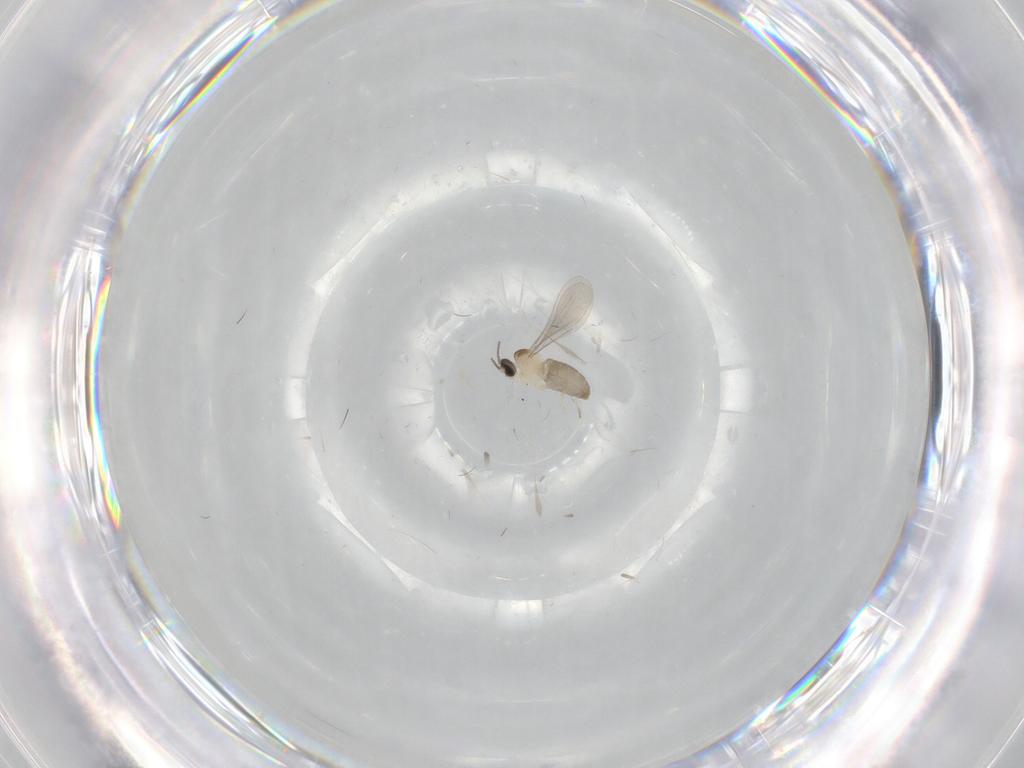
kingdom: Animalia
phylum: Arthropoda
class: Insecta
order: Diptera
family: Cecidomyiidae
